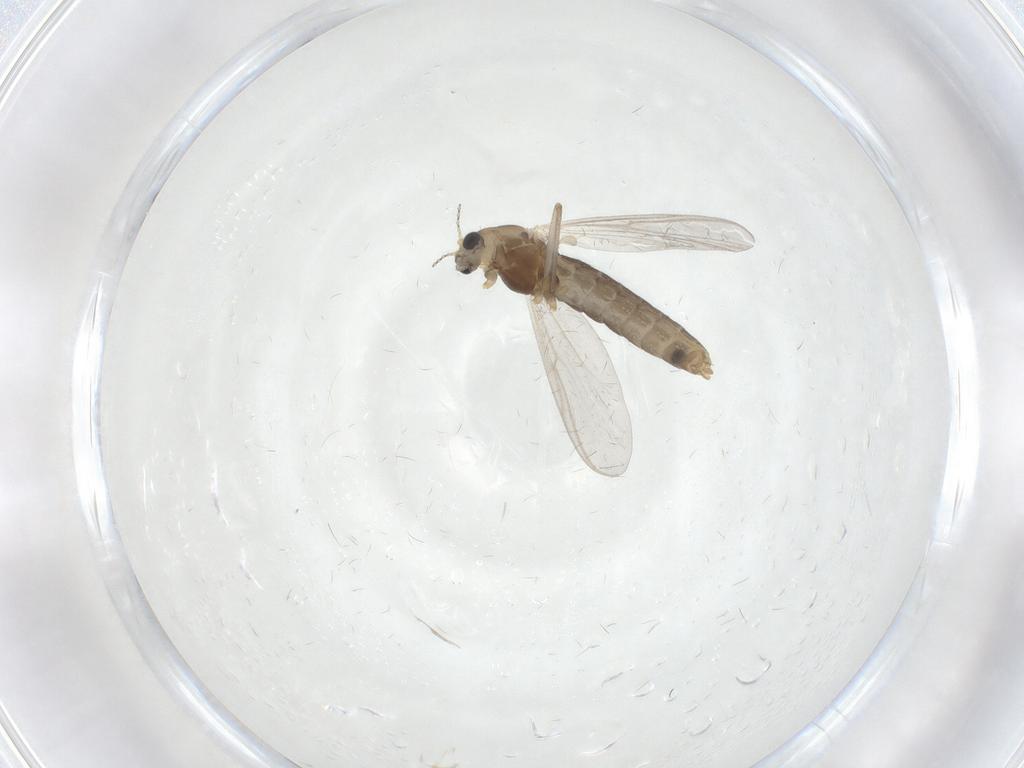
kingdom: Animalia
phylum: Arthropoda
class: Insecta
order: Diptera
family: Chironomidae
